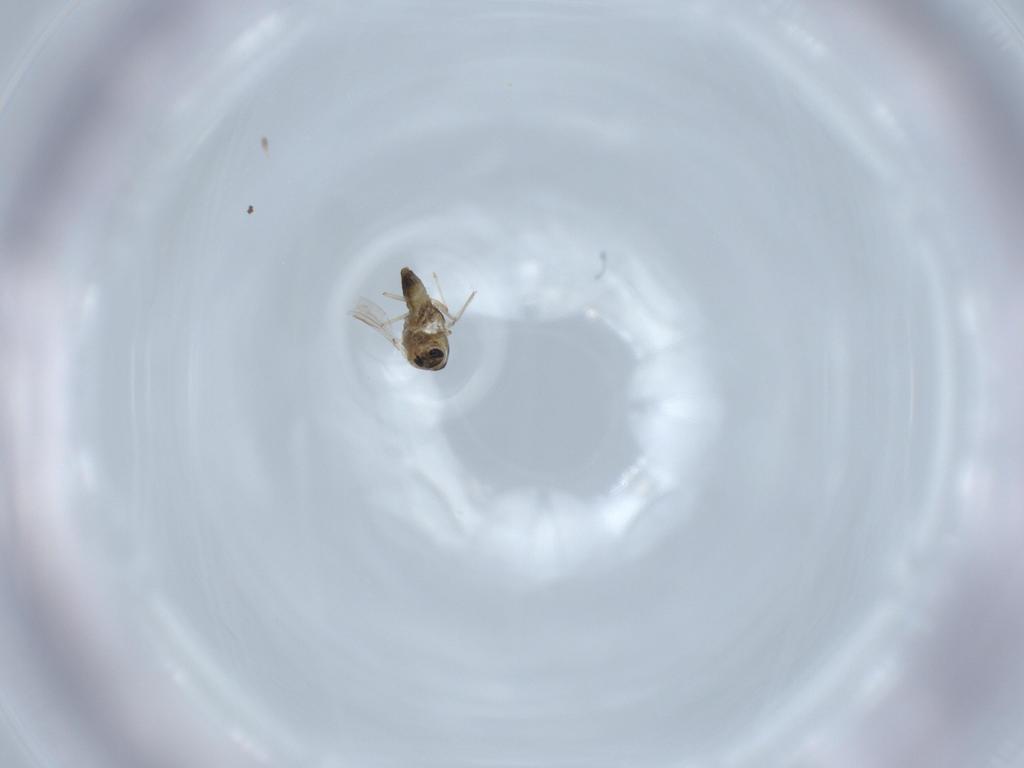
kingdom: Animalia
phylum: Arthropoda
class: Insecta
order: Diptera
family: Chironomidae
